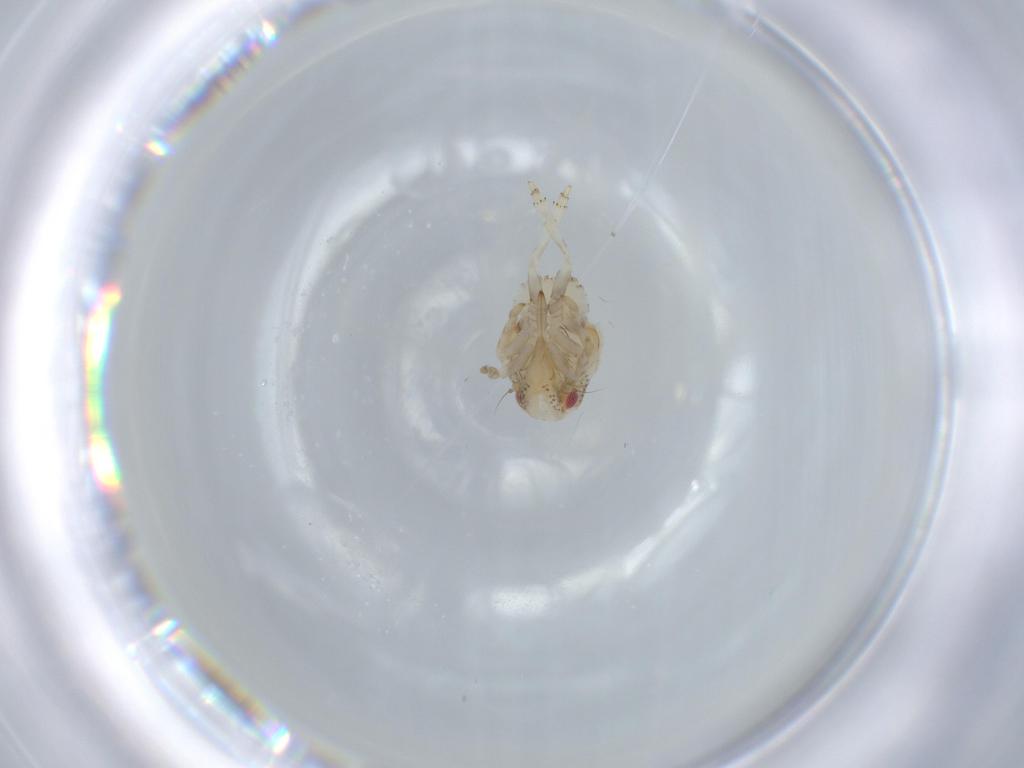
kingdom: Animalia
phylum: Arthropoda
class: Insecta
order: Hemiptera
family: Acanaloniidae
